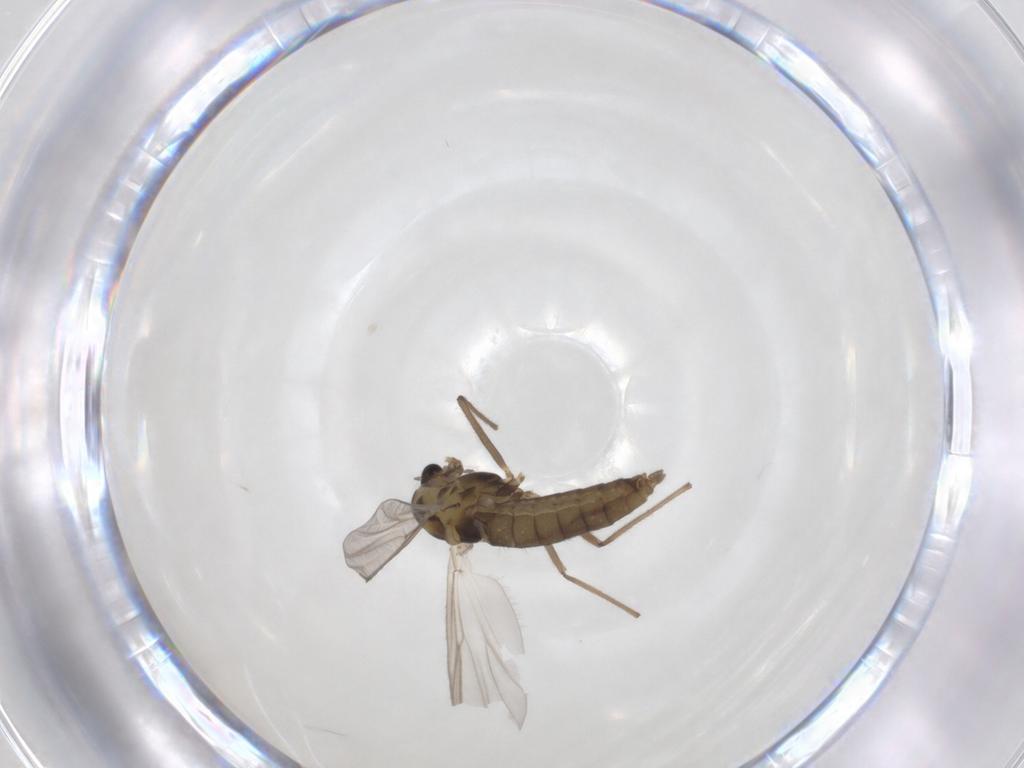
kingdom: Animalia
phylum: Arthropoda
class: Insecta
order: Diptera
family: Chironomidae
